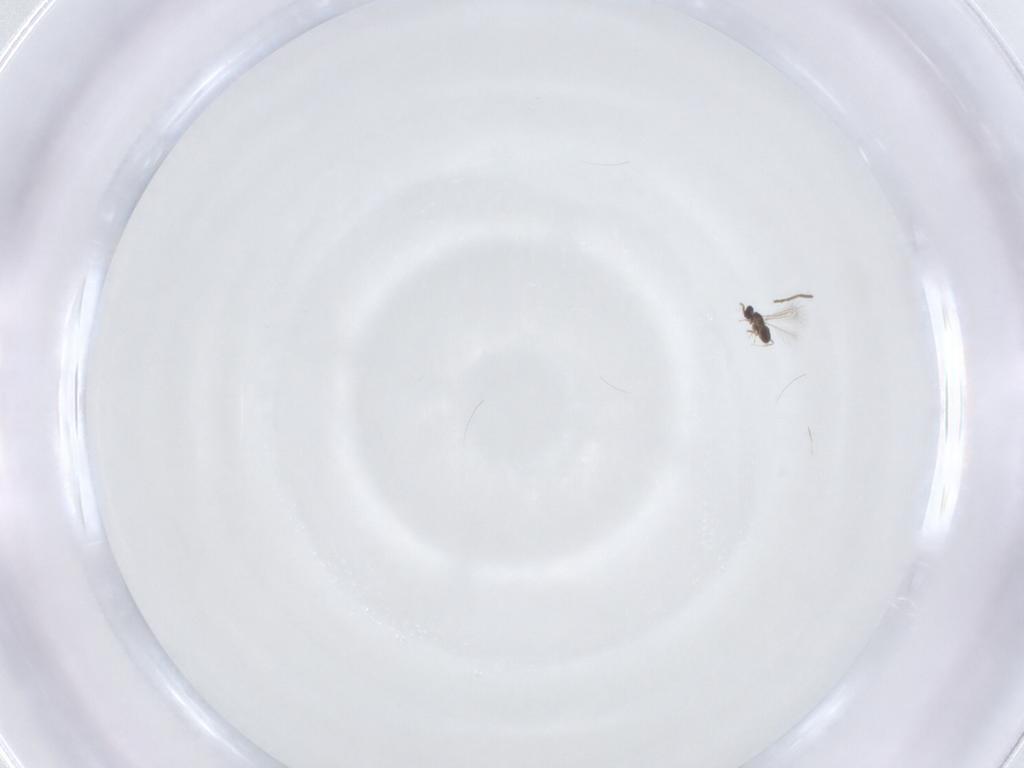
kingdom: Animalia
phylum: Arthropoda
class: Insecta
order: Hymenoptera
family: Mymaridae
